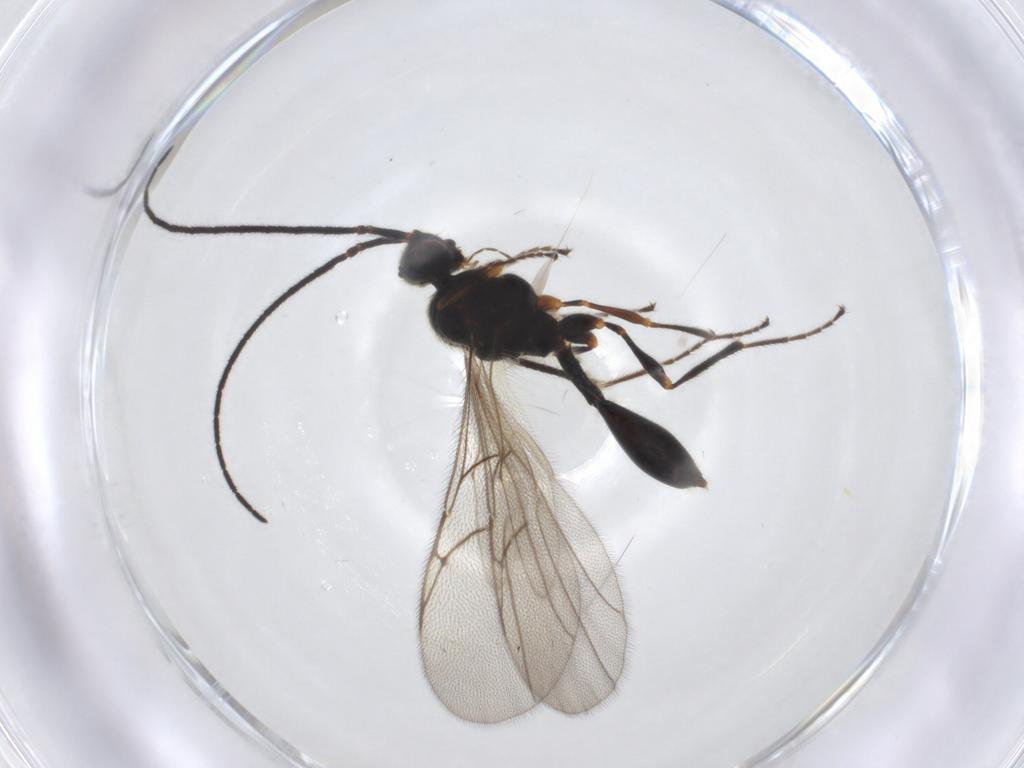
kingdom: Animalia
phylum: Arthropoda
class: Insecta
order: Hymenoptera
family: Platygastridae
